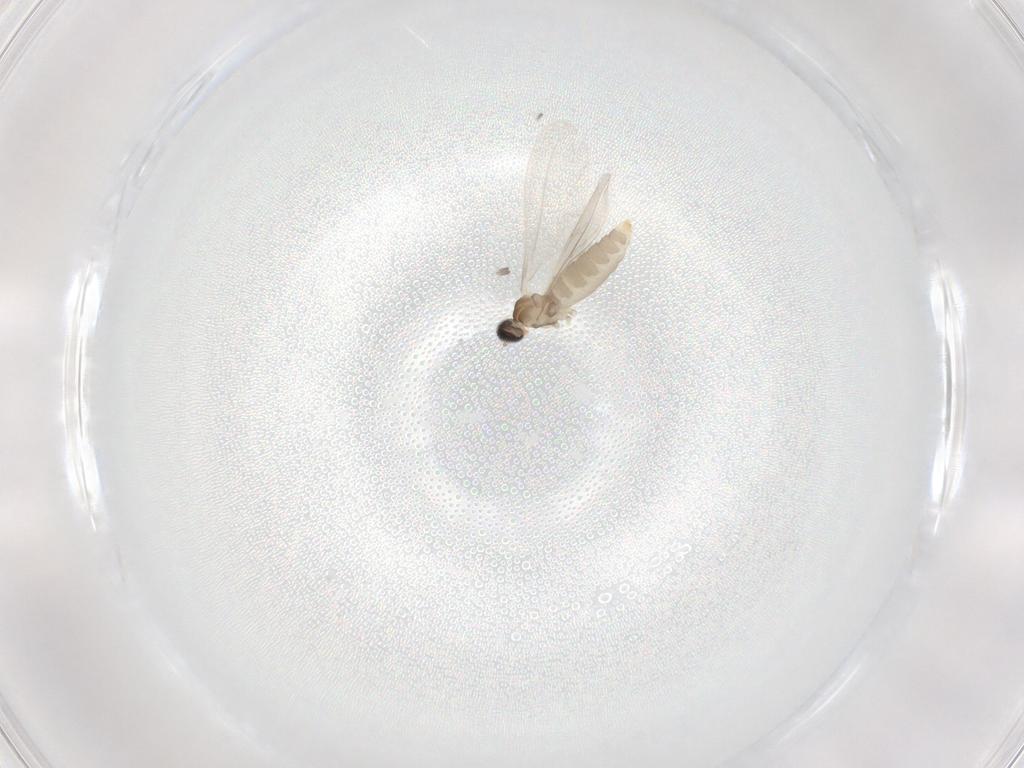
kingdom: Animalia
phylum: Arthropoda
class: Insecta
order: Diptera
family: Cecidomyiidae
